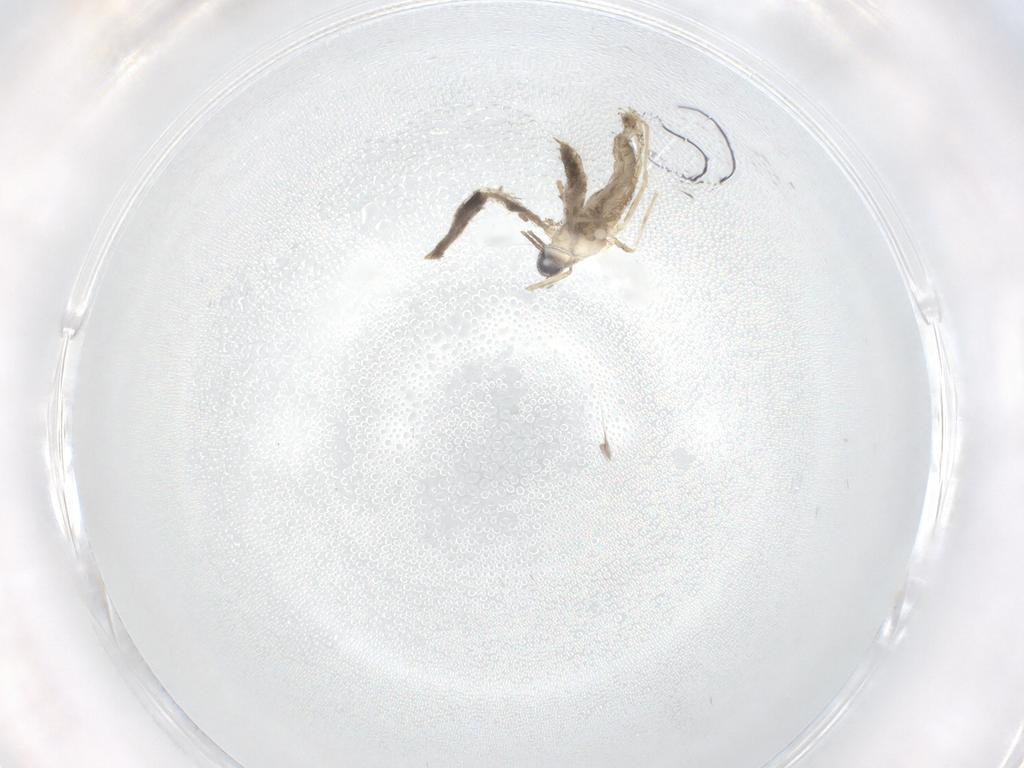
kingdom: Animalia
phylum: Arthropoda
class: Insecta
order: Diptera
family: Cecidomyiidae
